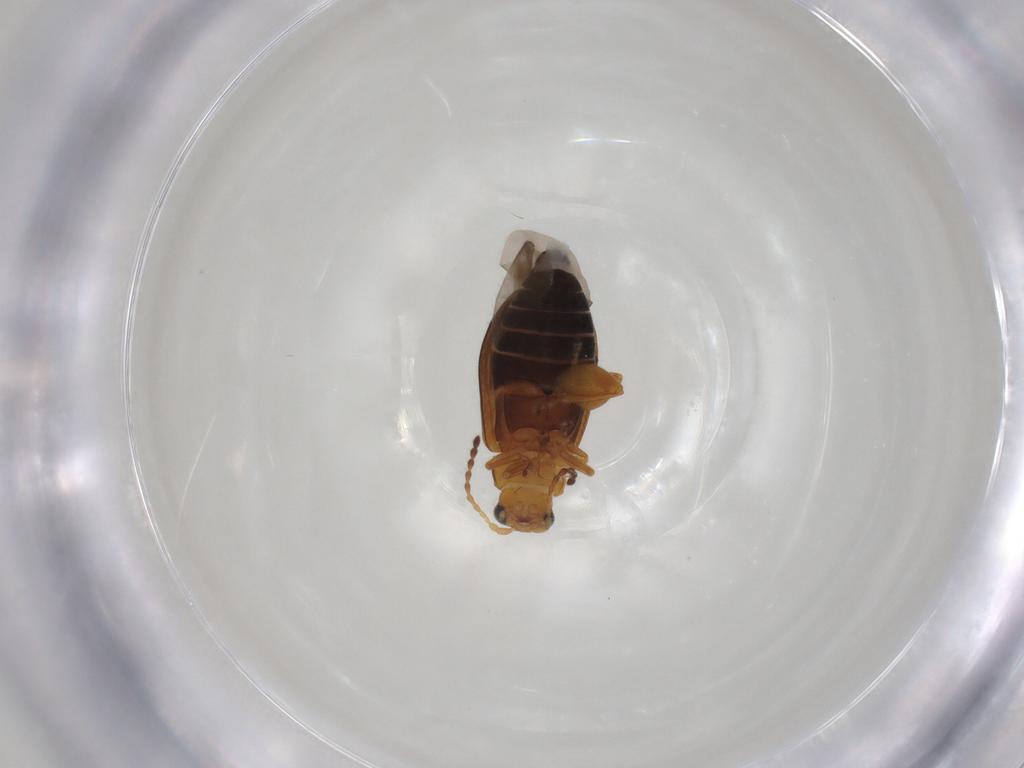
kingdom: Animalia
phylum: Arthropoda
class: Insecta
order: Coleoptera
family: Chrysomelidae
